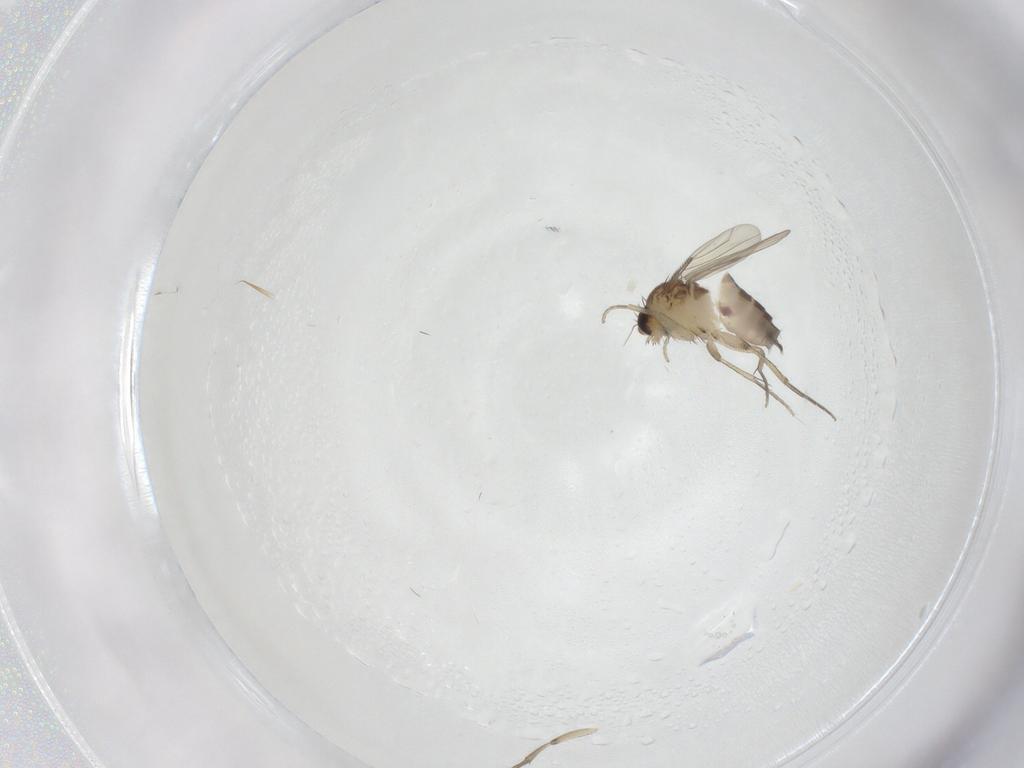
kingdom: Animalia
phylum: Arthropoda
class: Insecta
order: Diptera
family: Phoridae
